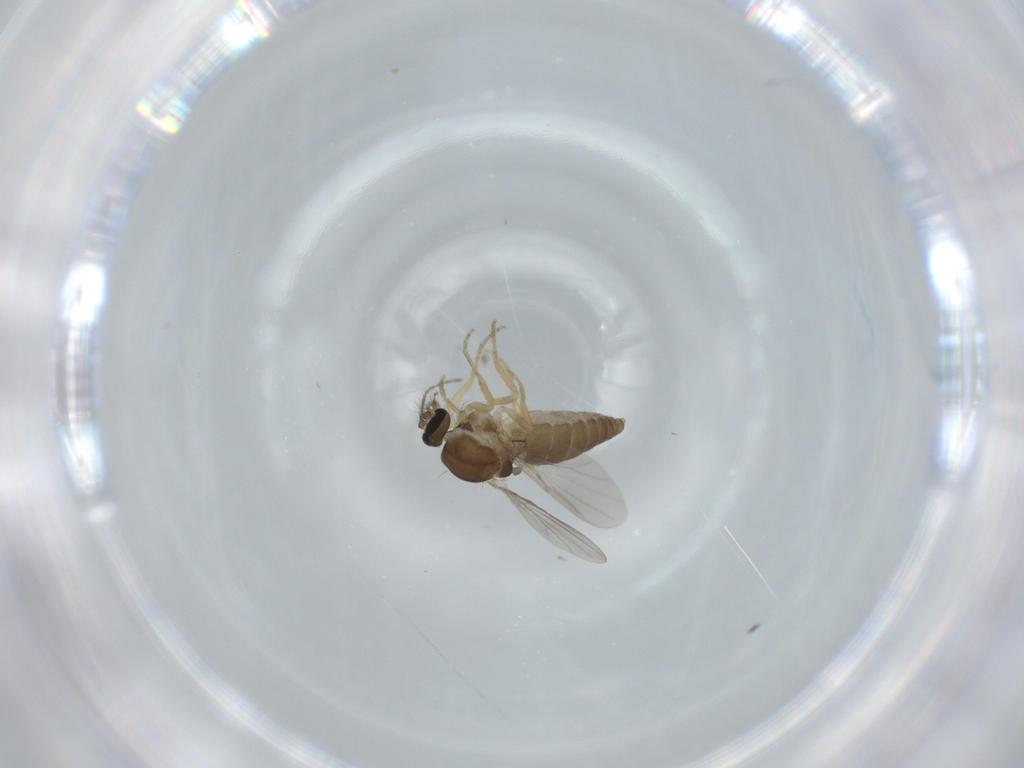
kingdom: Animalia
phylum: Arthropoda
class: Insecta
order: Diptera
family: Ceratopogonidae
